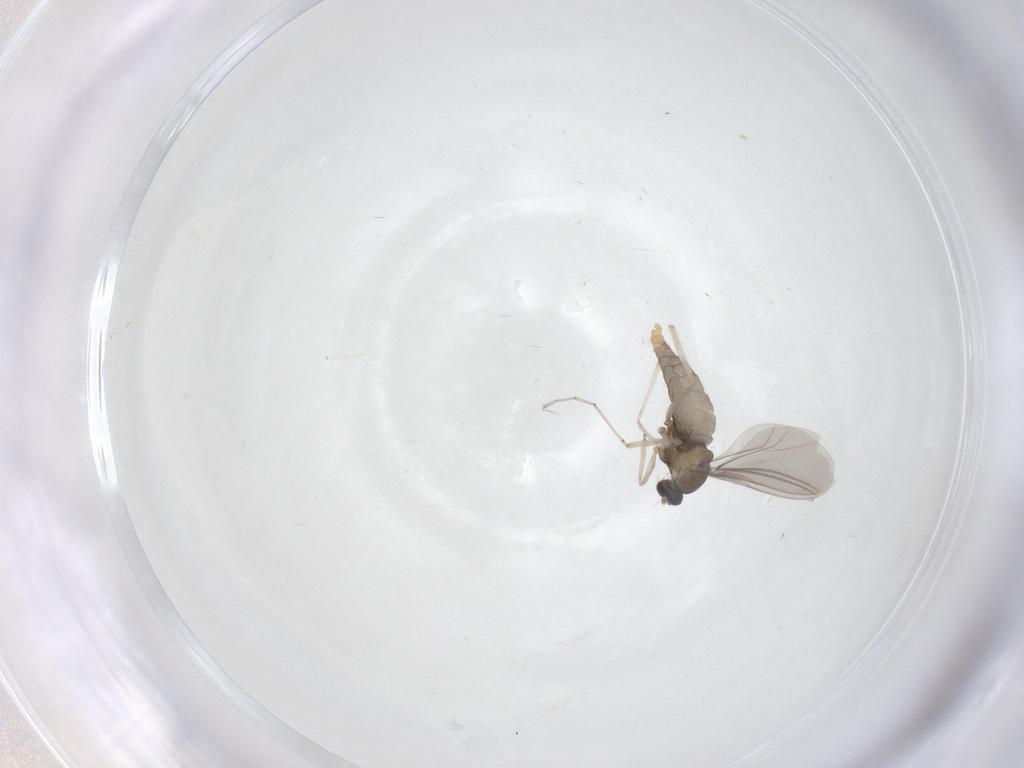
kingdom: Animalia
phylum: Arthropoda
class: Insecta
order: Diptera
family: Cecidomyiidae
